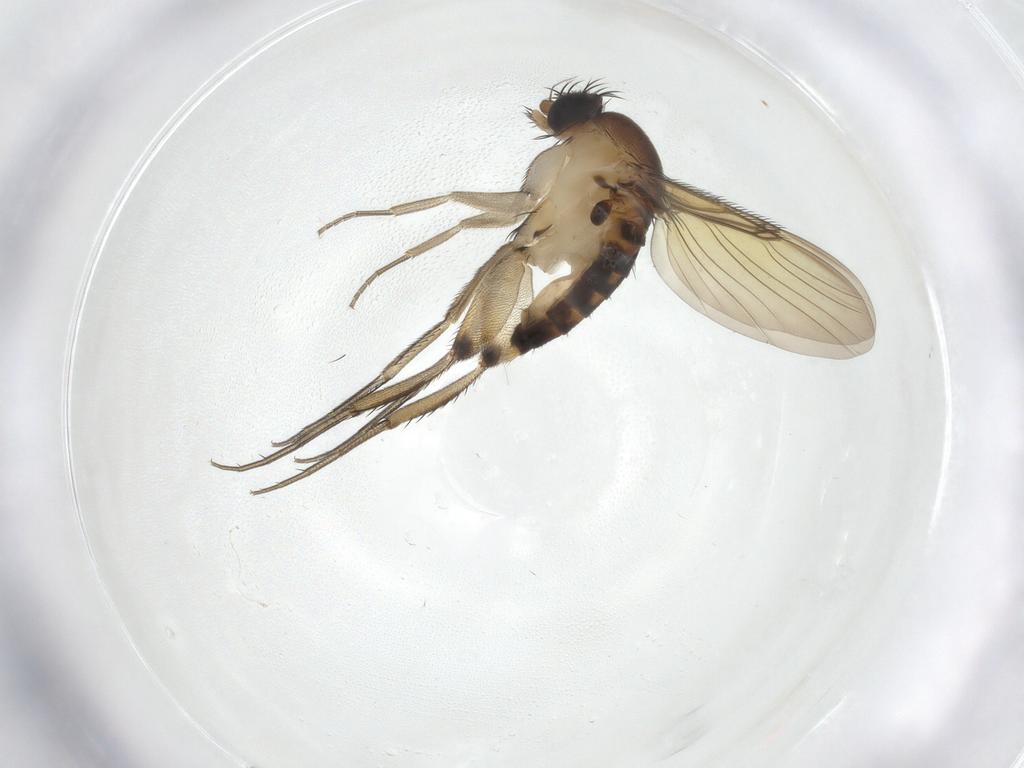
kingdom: Animalia
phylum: Arthropoda
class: Insecta
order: Diptera
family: Phoridae
